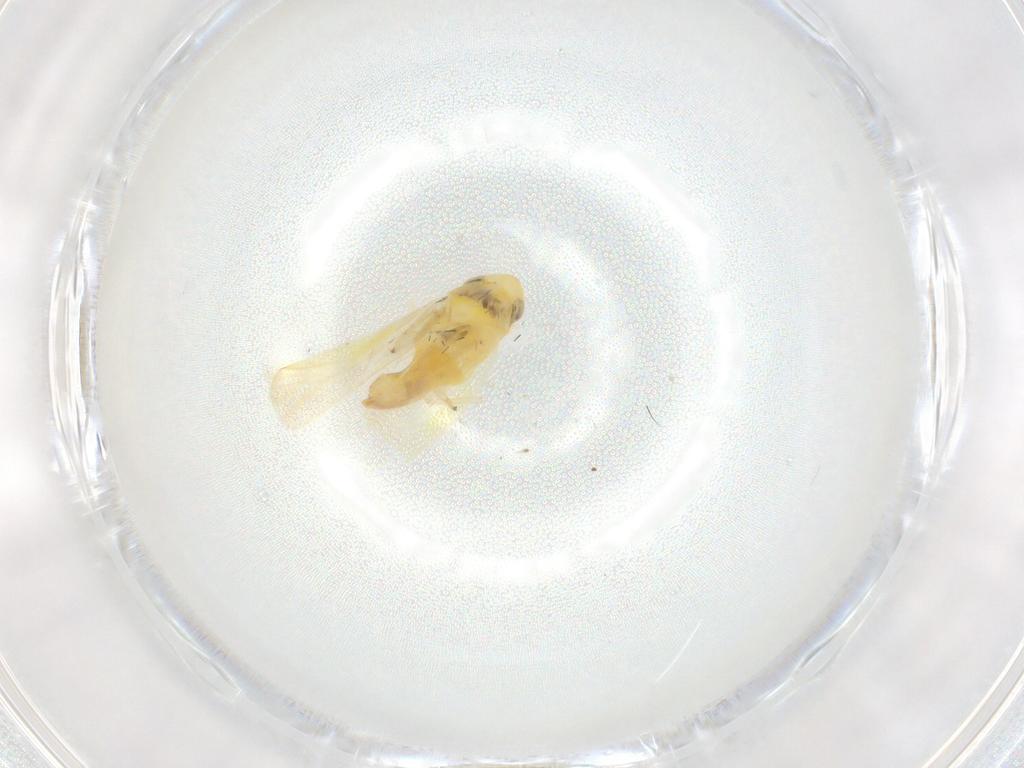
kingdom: Animalia
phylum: Arthropoda
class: Insecta
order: Hemiptera
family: Cicadellidae
